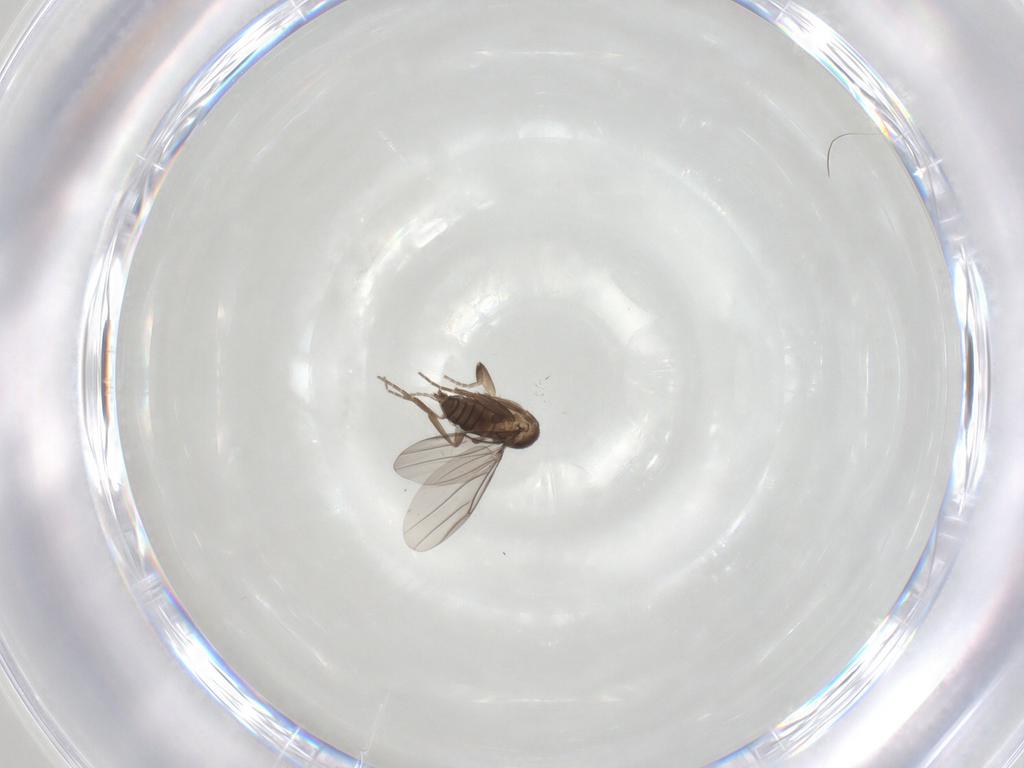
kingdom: Animalia
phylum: Arthropoda
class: Insecta
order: Diptera
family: Phoridae
